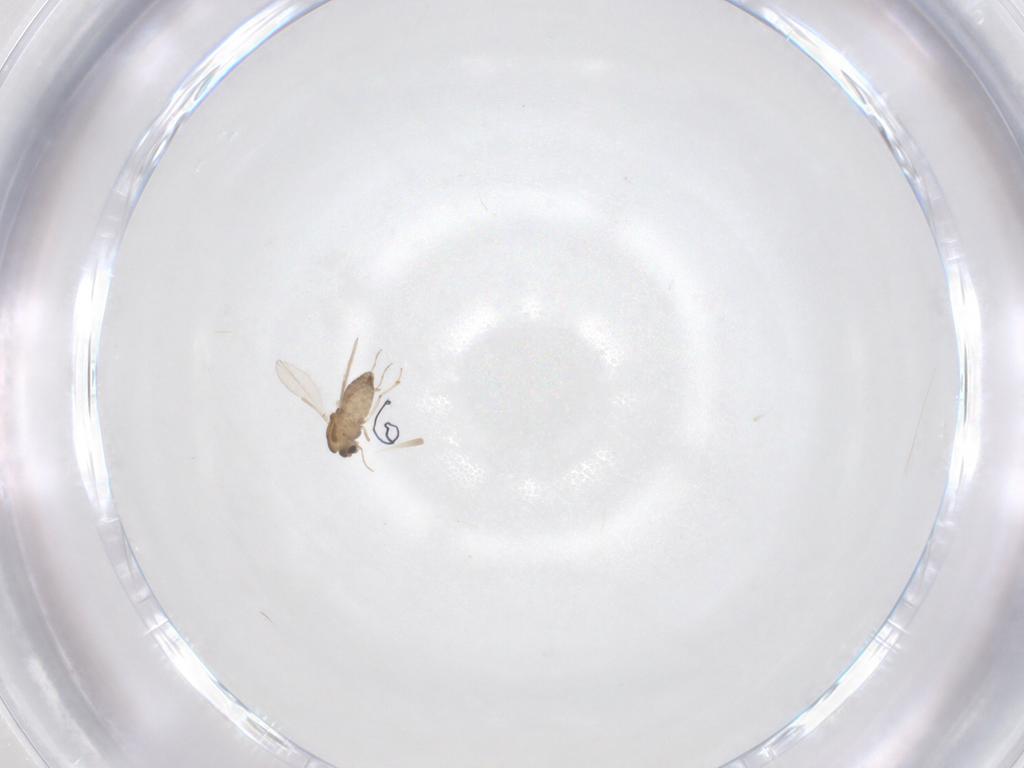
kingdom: Animalia
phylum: Arthropoda
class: Insecta
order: Diptera
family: Chironomidae
